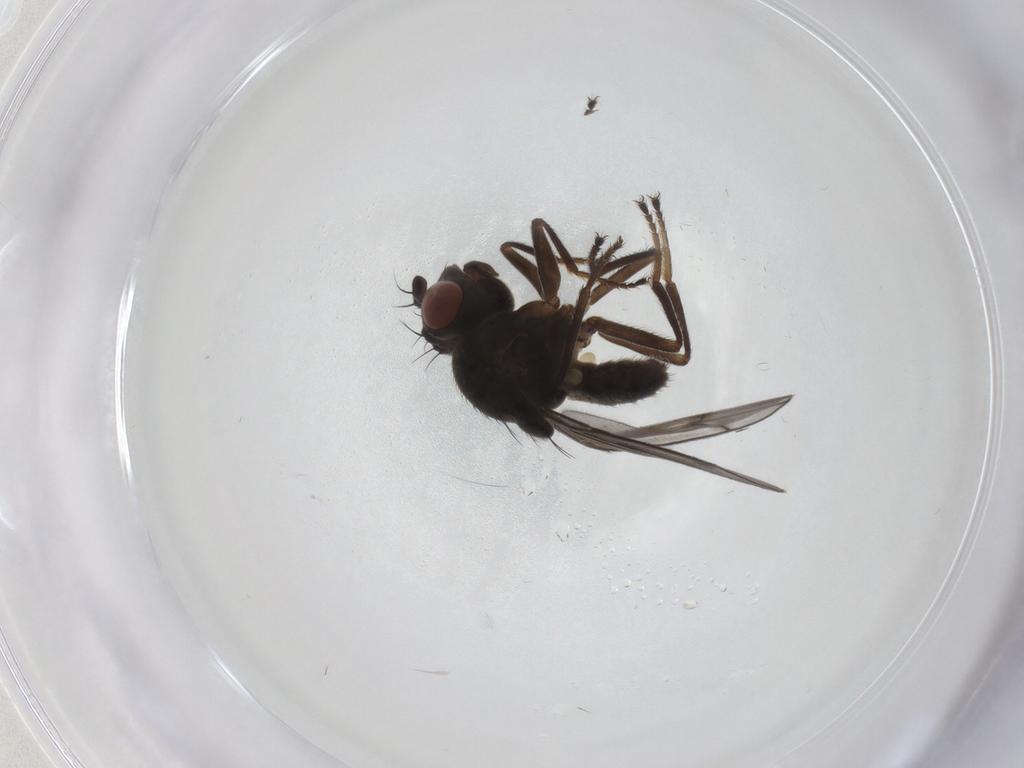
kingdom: Animalia
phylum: Arthropoda
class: Insecta
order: Diptera
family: Ephydridae
